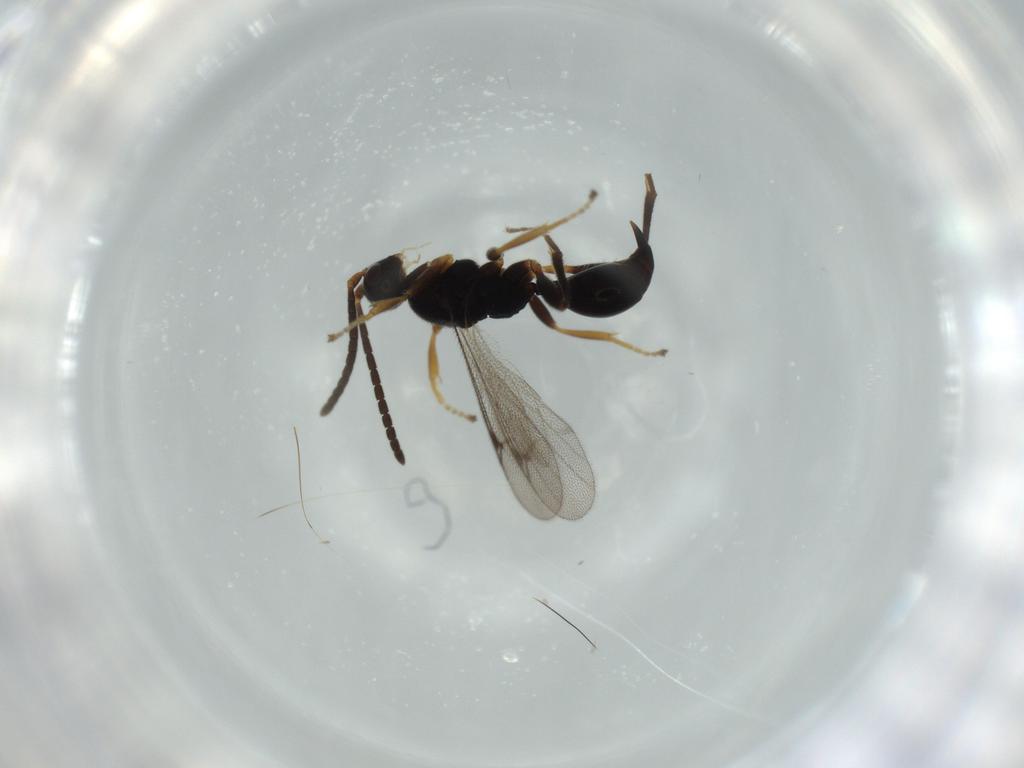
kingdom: Animalia
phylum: Arthropoda
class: Insecta
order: Hymenoptera
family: Proctotrupidae
